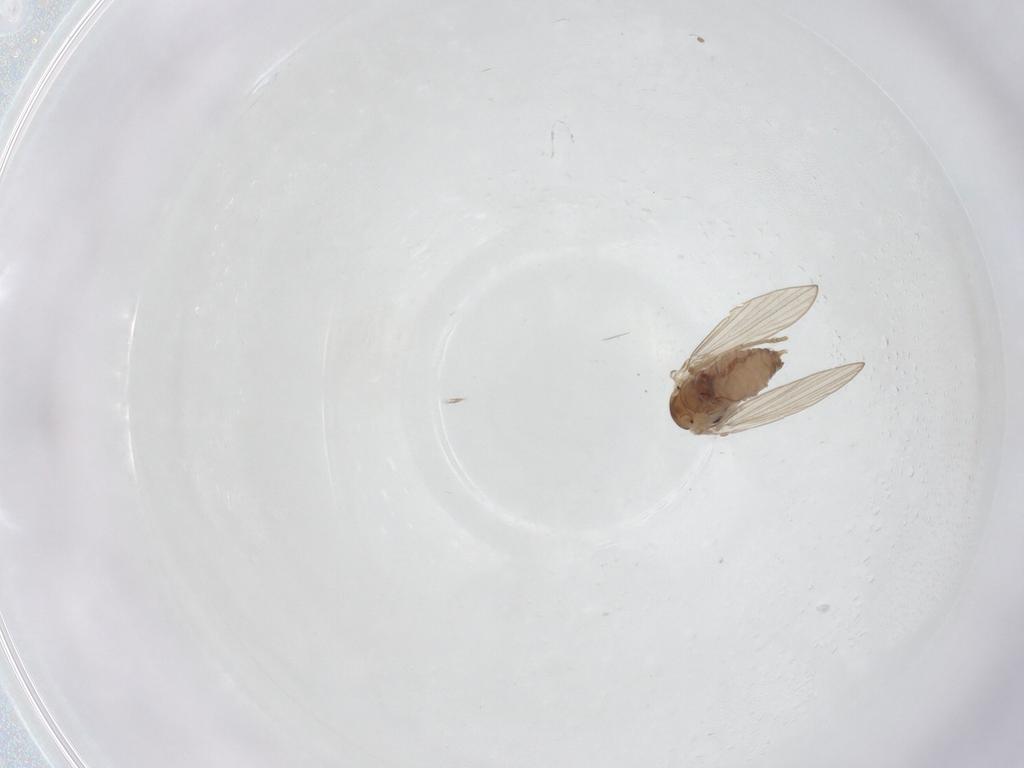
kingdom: Animalia
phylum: Arthropoda
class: Insecta
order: Diptera
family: Psychodidae
